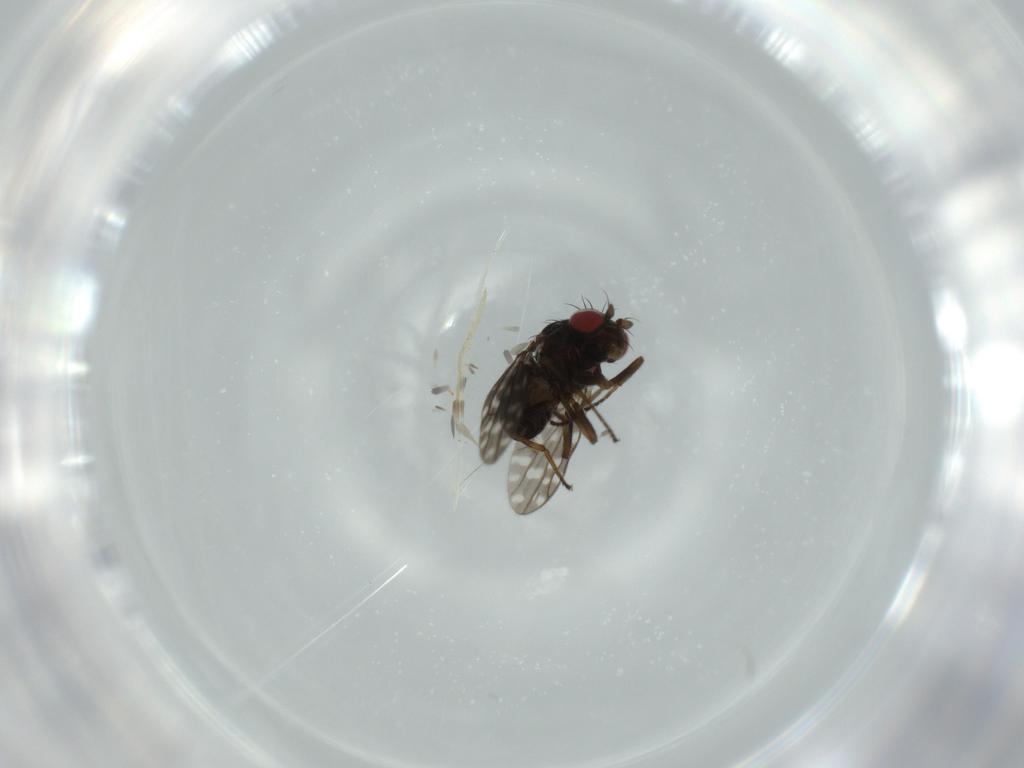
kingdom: Animalia
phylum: Arthropoda
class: Insecta
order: Diptera
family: Ephydridae
